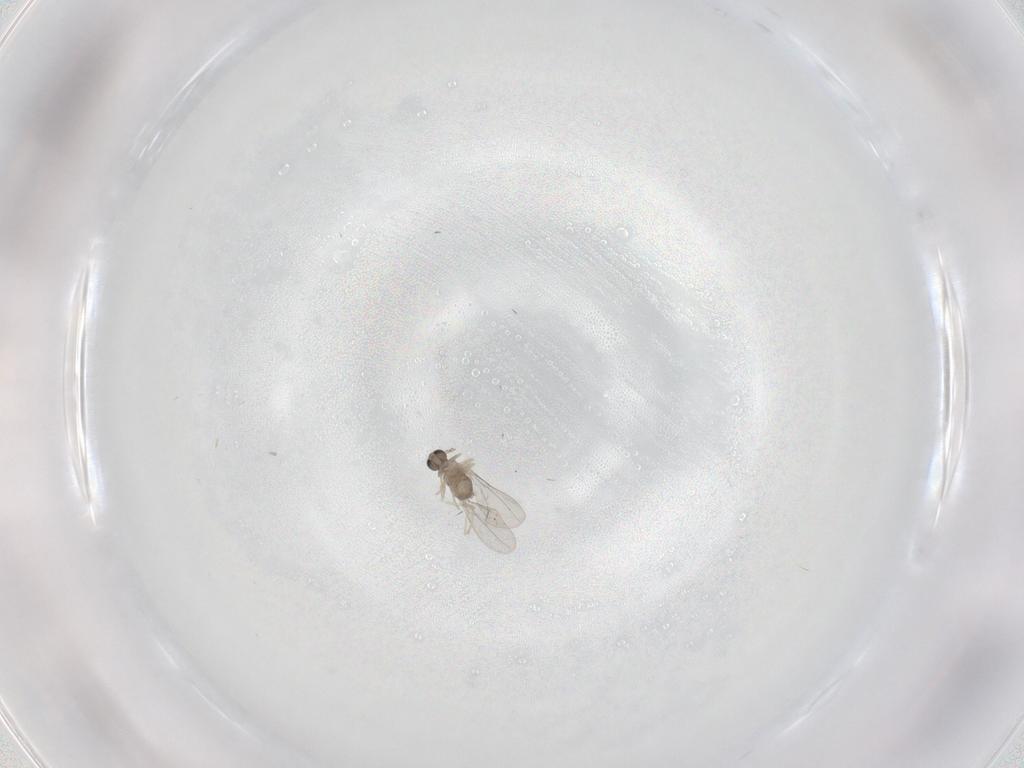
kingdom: Animalia
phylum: Arthropoda
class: Insecta
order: Diptera
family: Cecidomyiidae
